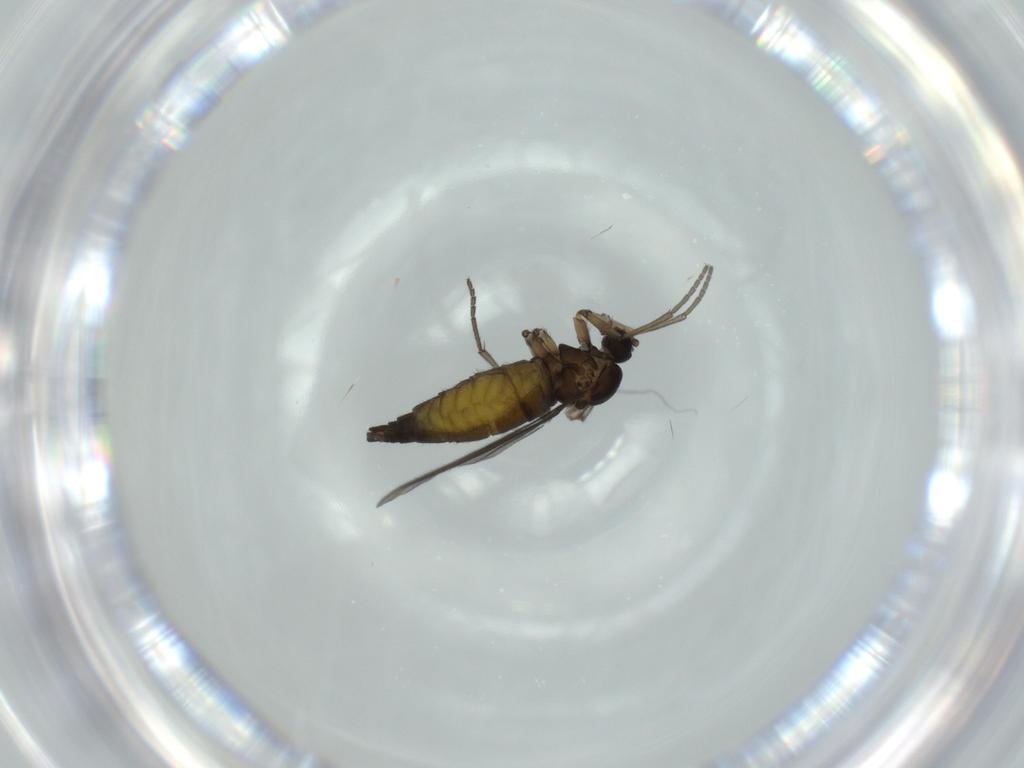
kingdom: Animalia
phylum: Arthropoda
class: Insecta
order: Diptera
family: Sciaridae
